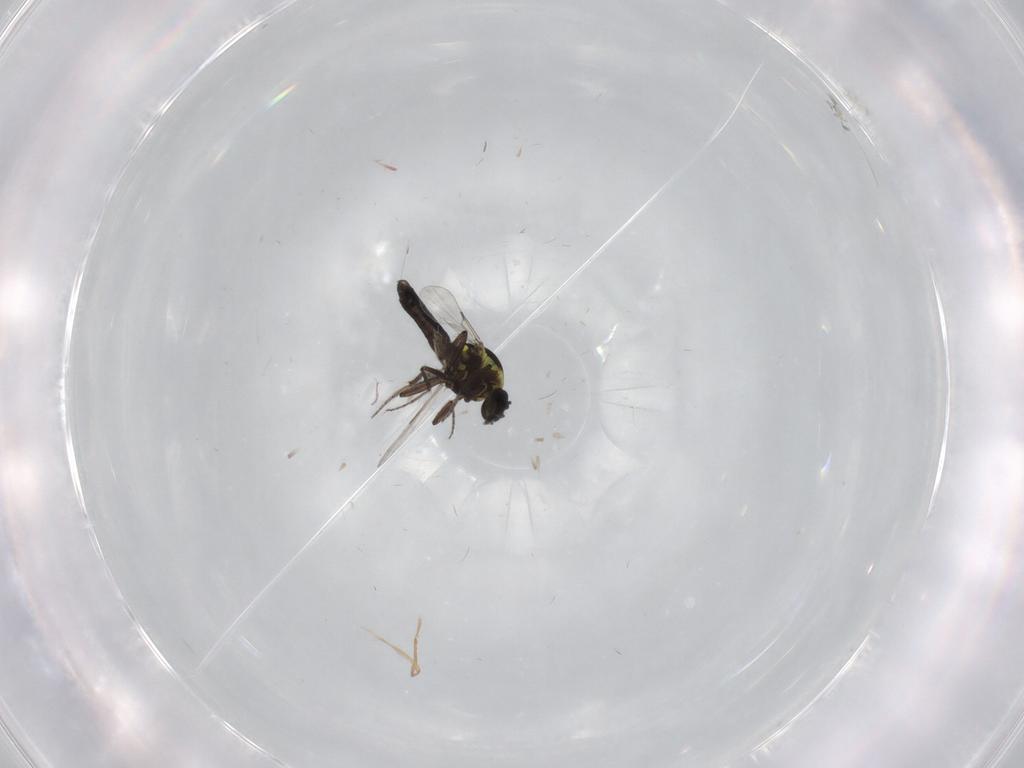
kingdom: Animalia
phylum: Arthropoda
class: Insecta
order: Diptera
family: Ceratopogonidae
